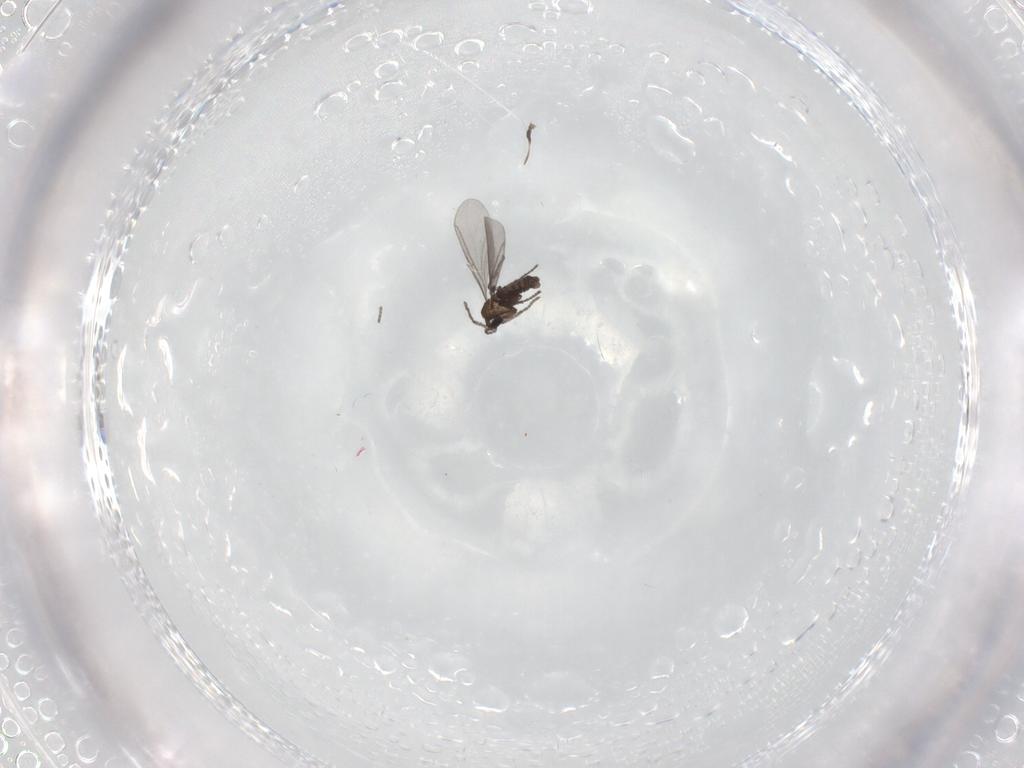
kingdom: Animalia
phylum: Arthropoda
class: Insecta
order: Diptera
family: Sciaridae
